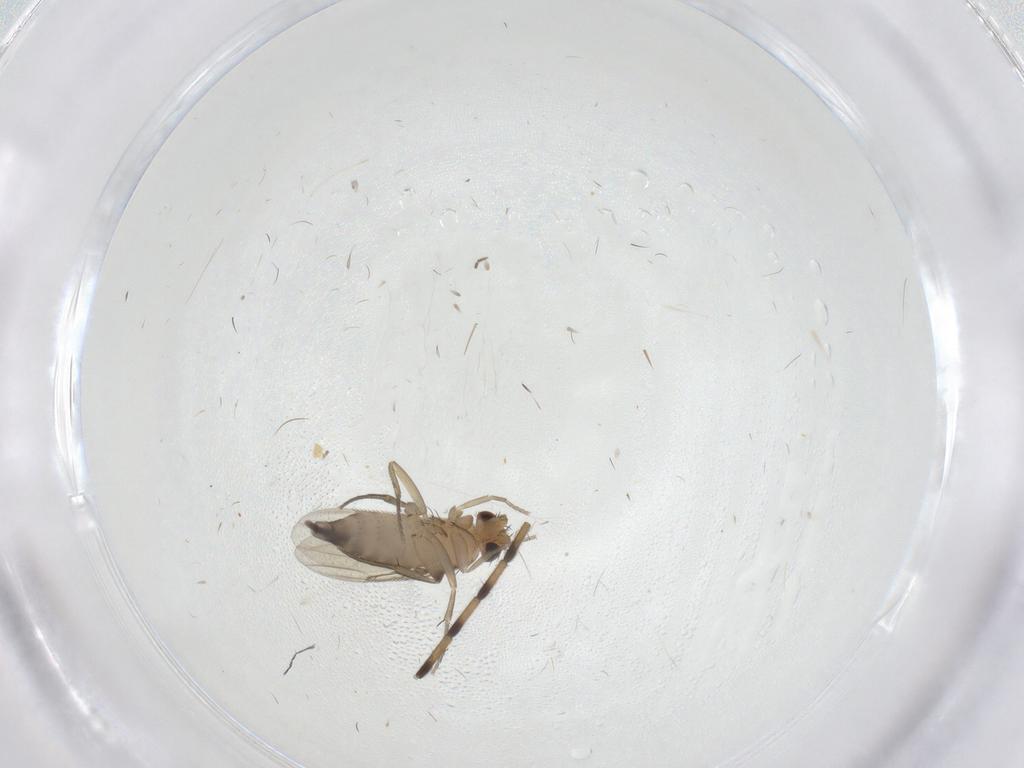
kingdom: Animalia
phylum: Arthropoda
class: Insecta
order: Diptera
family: Phoridae
